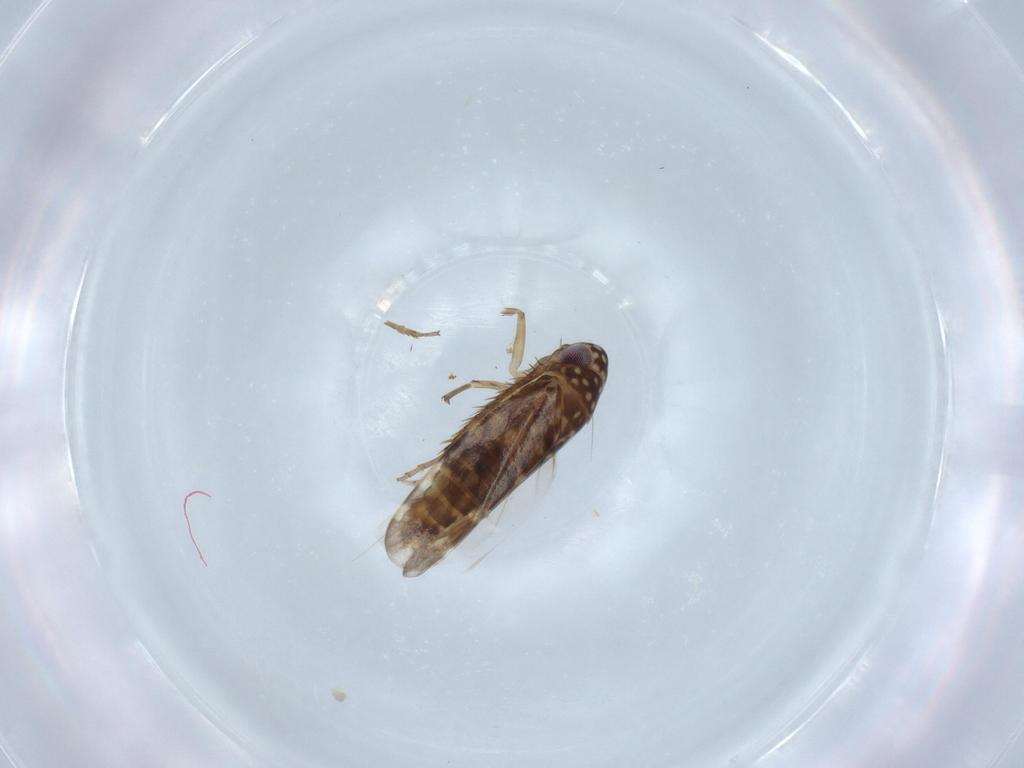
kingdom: Animalia
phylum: Arthropoda
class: Insecta
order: Hemiptera
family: Cicadellidae
